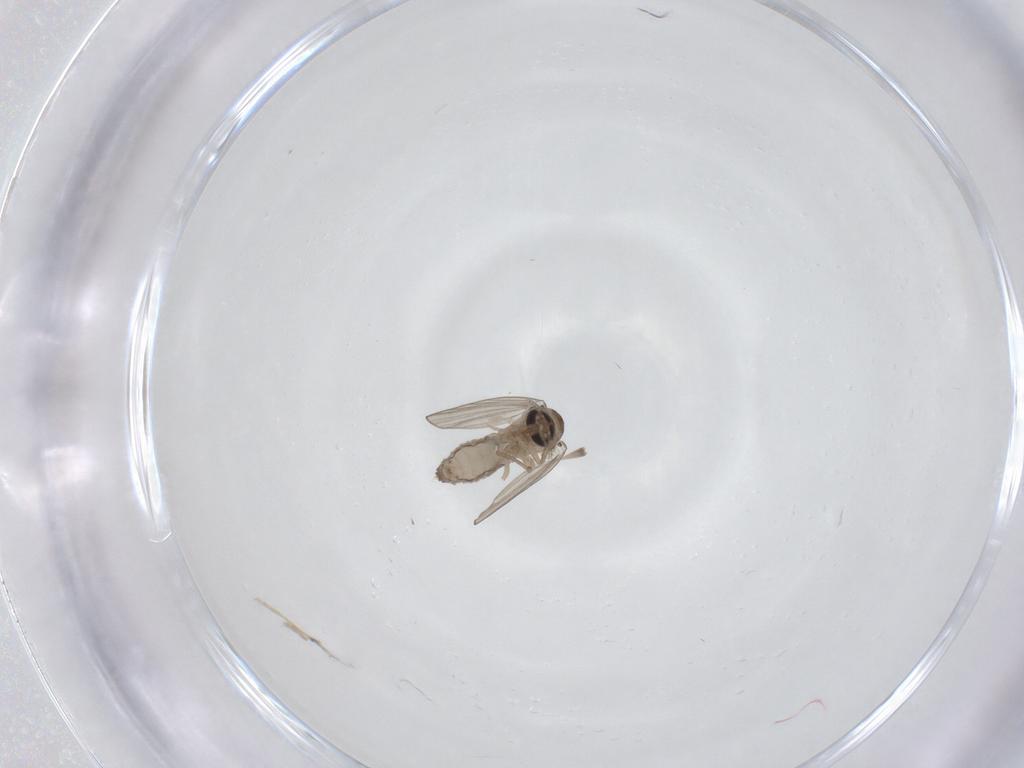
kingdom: Animalia
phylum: Arthropoda
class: Insecta
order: Diptera
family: Psychodidae
